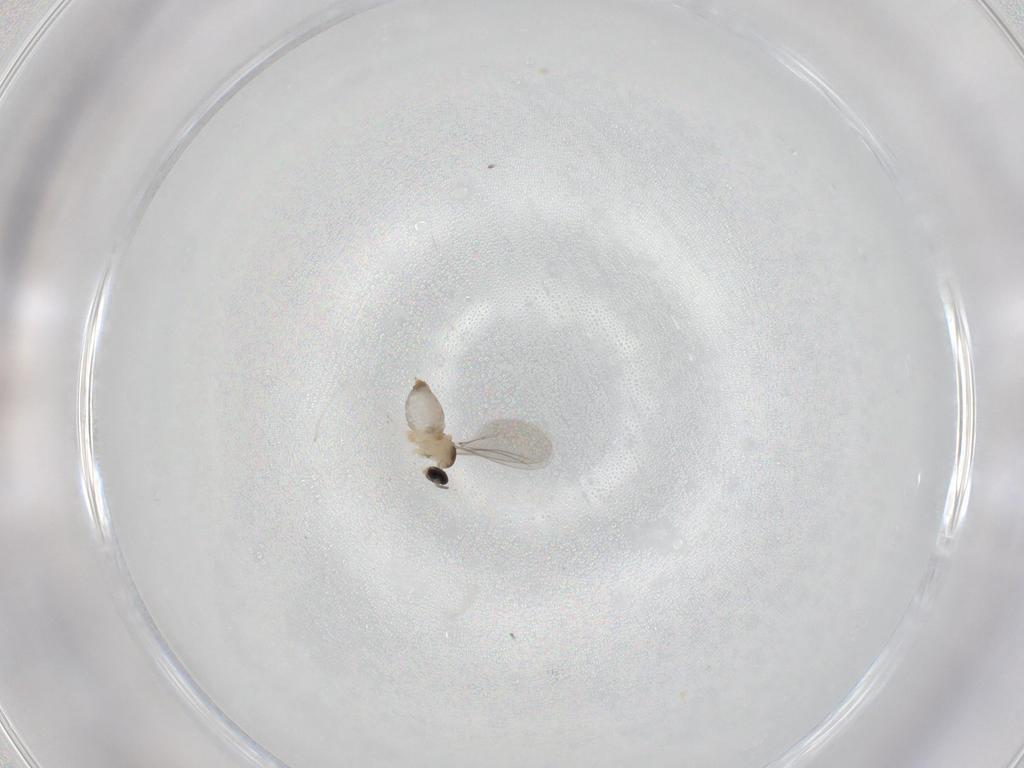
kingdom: Animalia
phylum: Arthropoda
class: Insecta
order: Diptera
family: Cecidomyiidae
